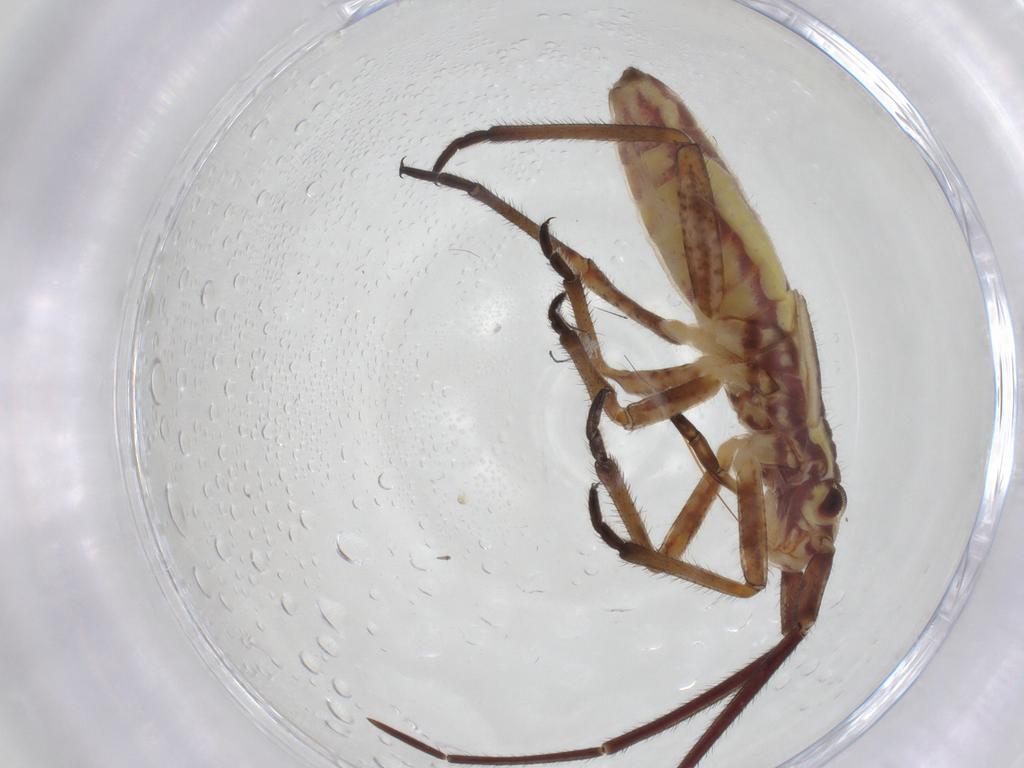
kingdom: Animalia
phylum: Arthropoda
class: Insecta
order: Hemiptera
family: Miridae
